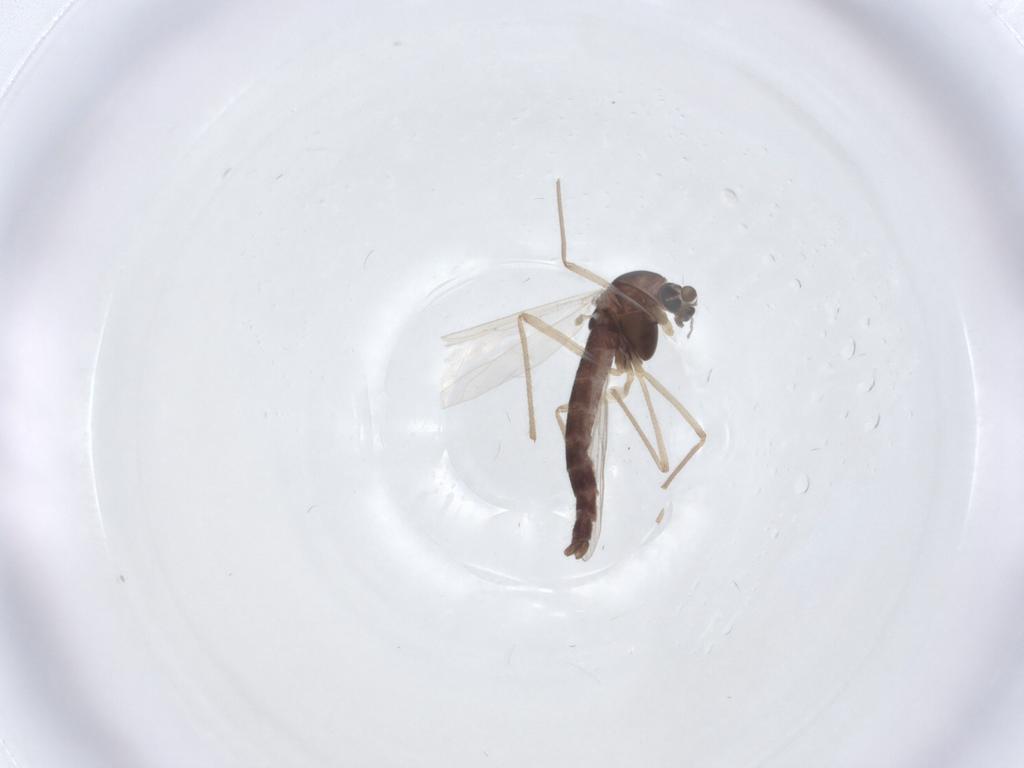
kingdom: Animalia
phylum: Arthropoda
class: Insecta
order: Diptera
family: Chironomidae
